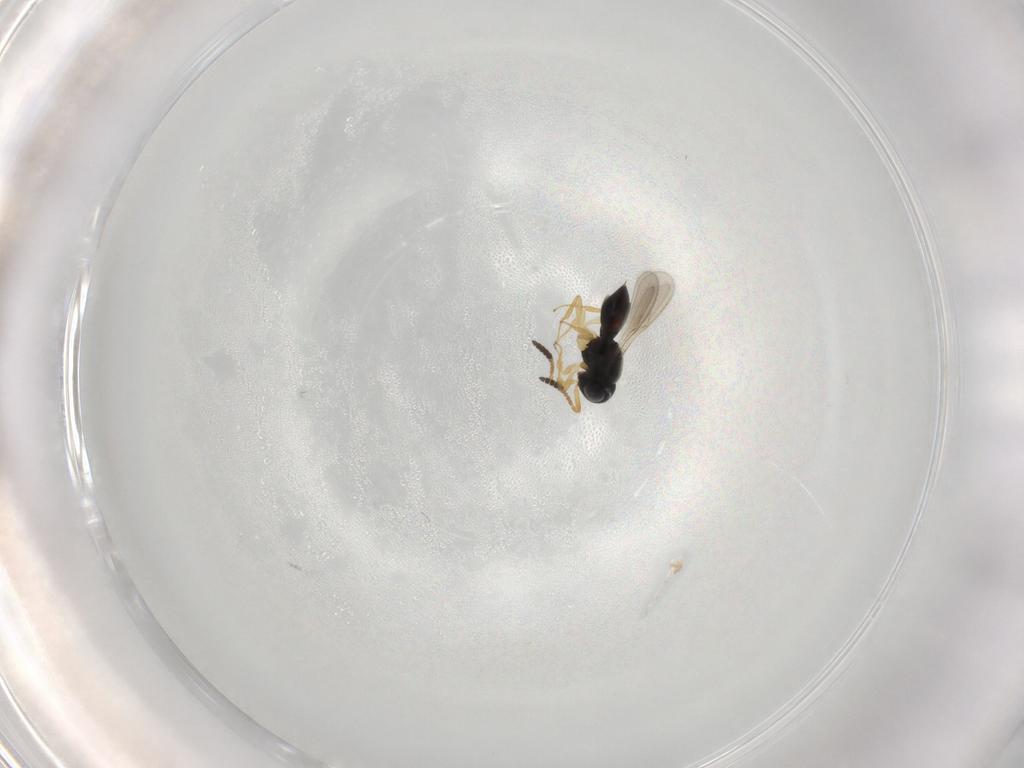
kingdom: Animalia
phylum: Arthropoda
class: Insecta
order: Hymenoptera
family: Scelionidae
